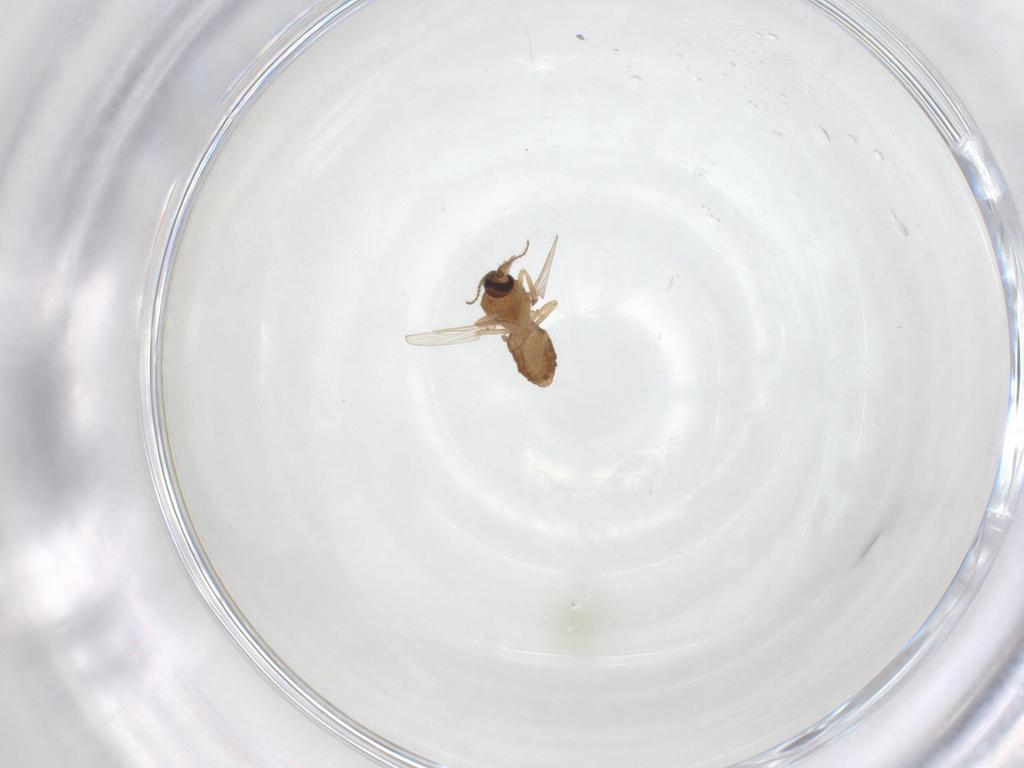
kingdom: Animalia
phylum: Arthropoda
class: Insecta
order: Diptera
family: Ceratopogonidae
